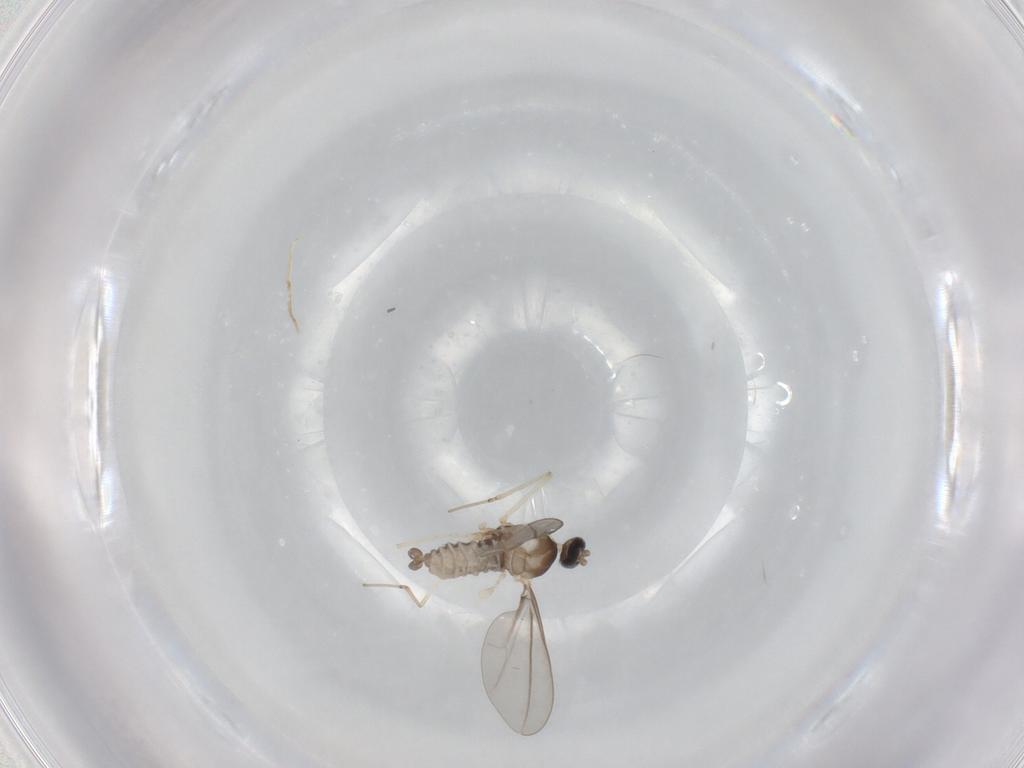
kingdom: Animalia
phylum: Arthropoda
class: Insecta
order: Diptera
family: Cecidomyiidae
